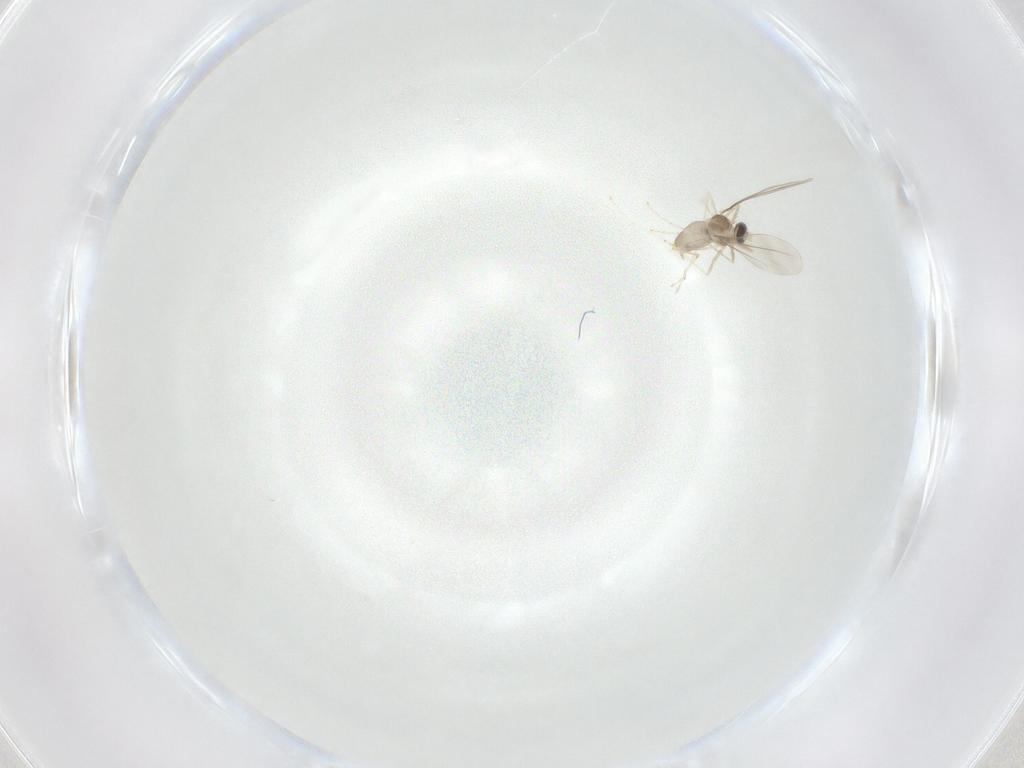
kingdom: Animalia
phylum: Arthropoda
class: Insecta
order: Diptera
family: Cecidomyiidae
